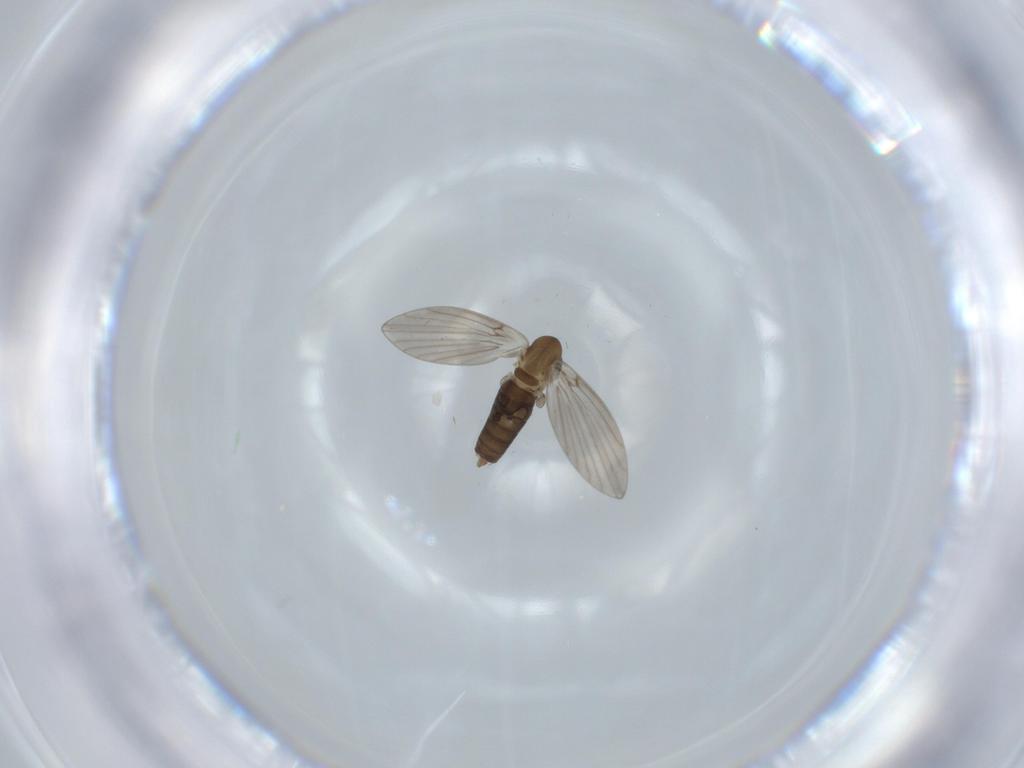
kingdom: Animalia
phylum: Arthropoda
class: Insecta
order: Diptera
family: Psychodidae
